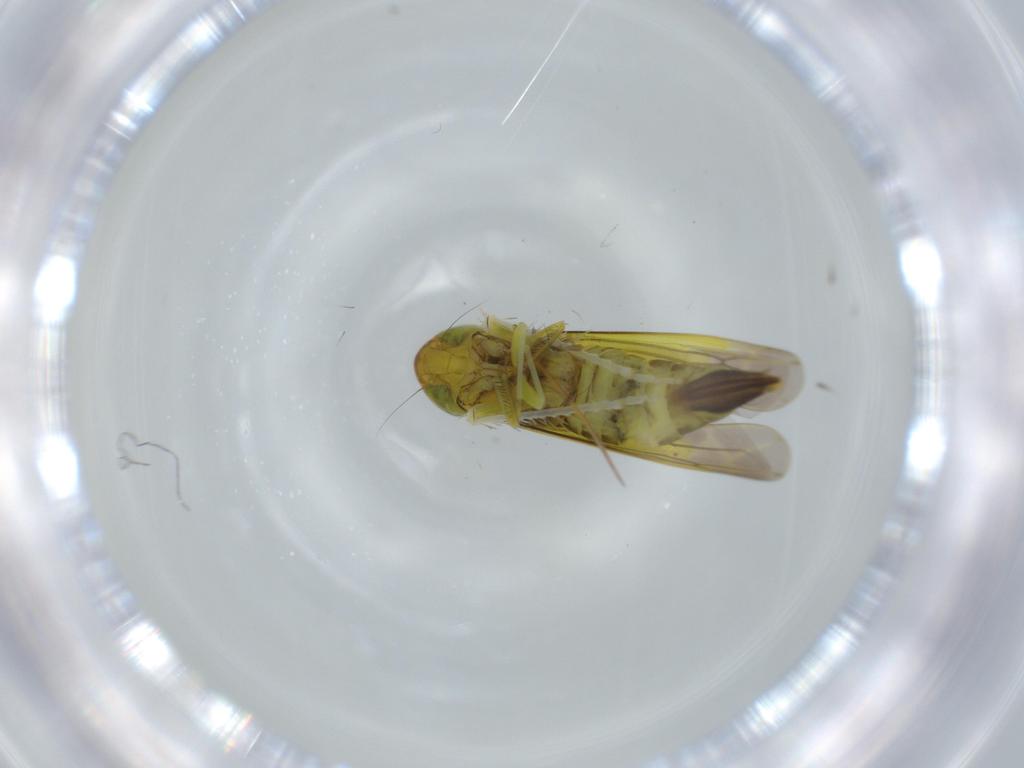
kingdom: Animalia
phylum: Arthropoda
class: Insecta
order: Hemiptera
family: Cicadellidae
